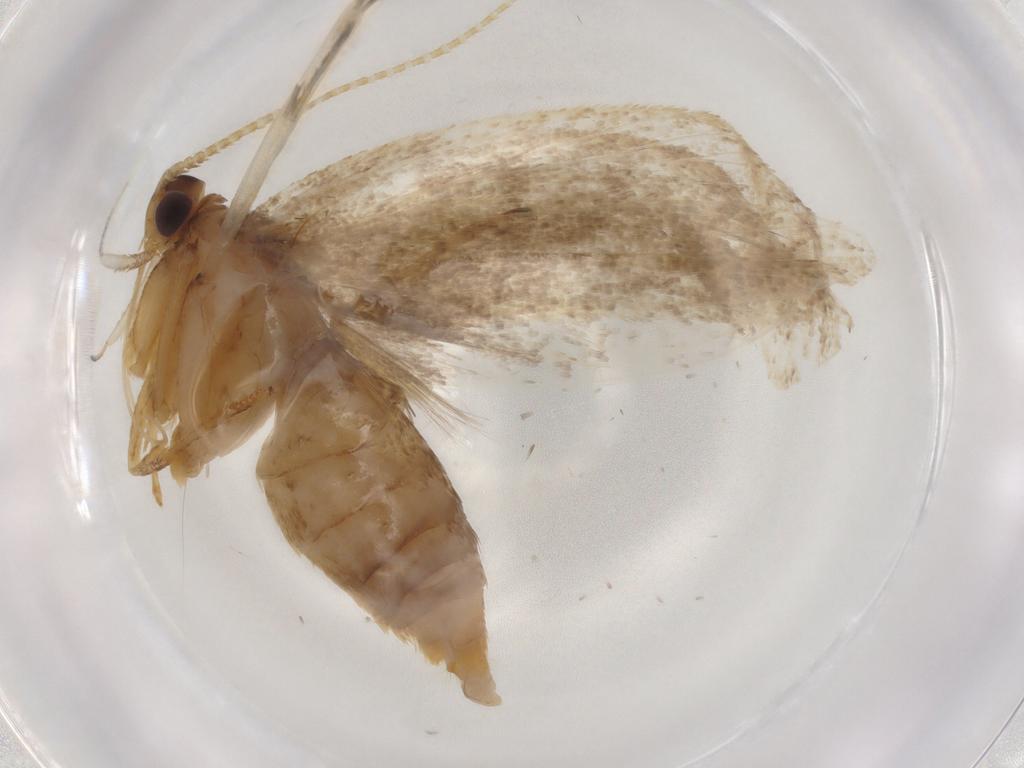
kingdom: Animalia
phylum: Arthropoda
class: Insecta
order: Lepidoptera
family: Lecithoceridae
